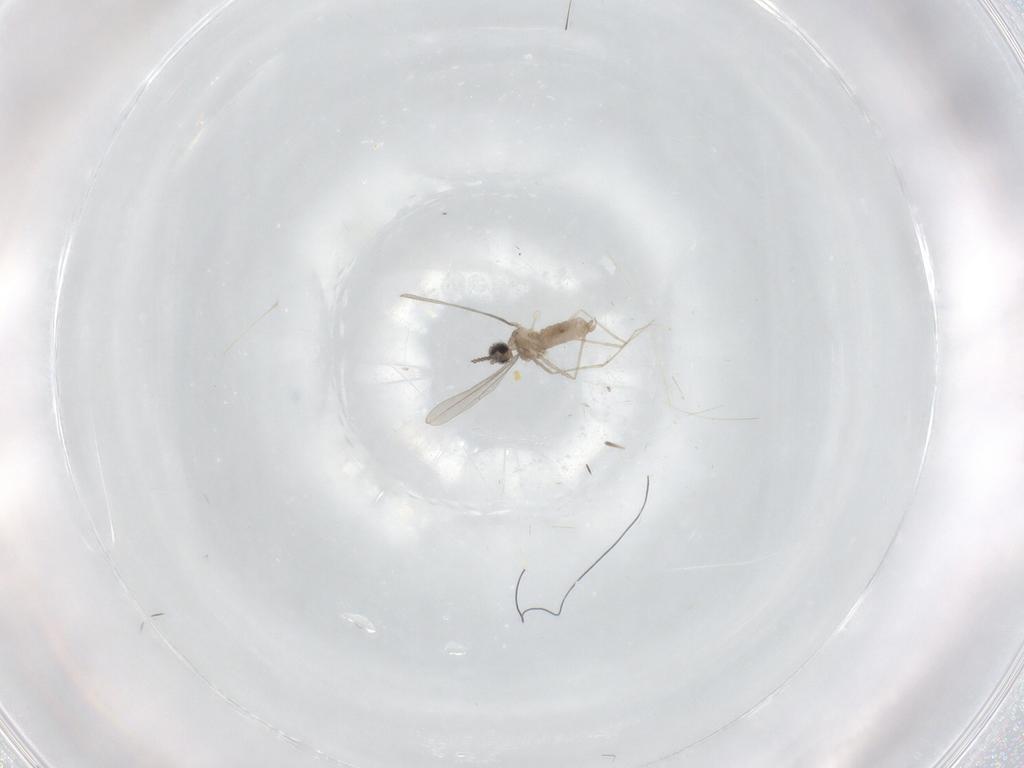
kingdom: Animalia
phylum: Arthropoda
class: Insecta
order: Diptera
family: Cecidomyiidae
